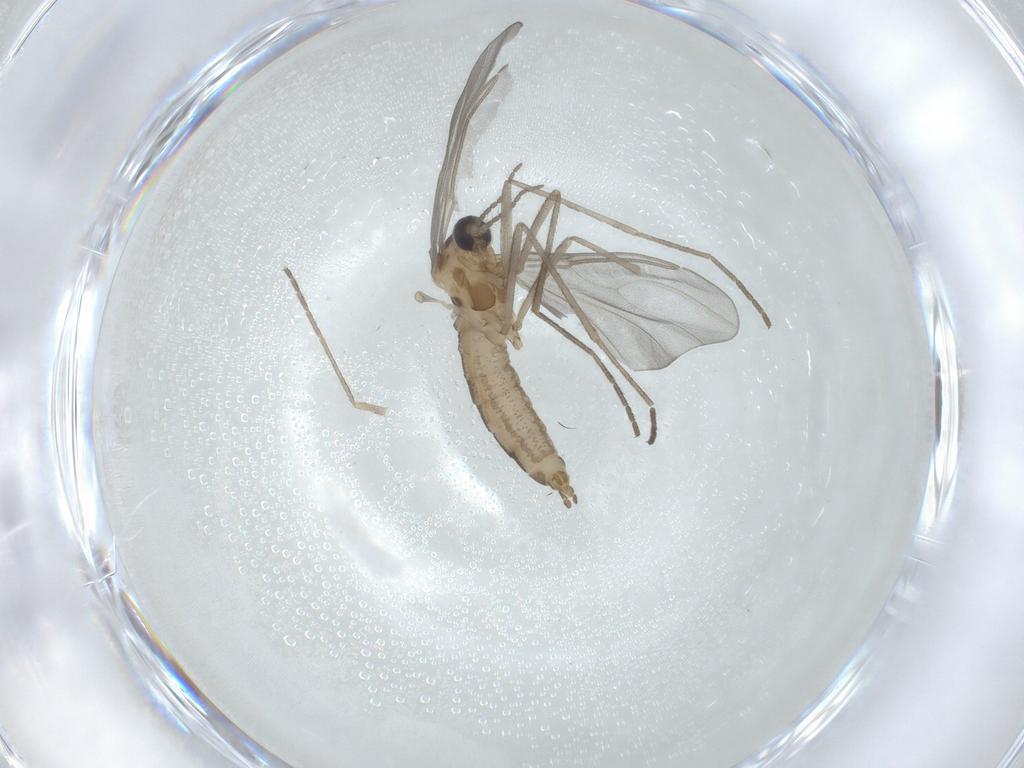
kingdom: Animalia
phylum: Arthropoda
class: Insecta
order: Diptera
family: Cecidomyiidae
